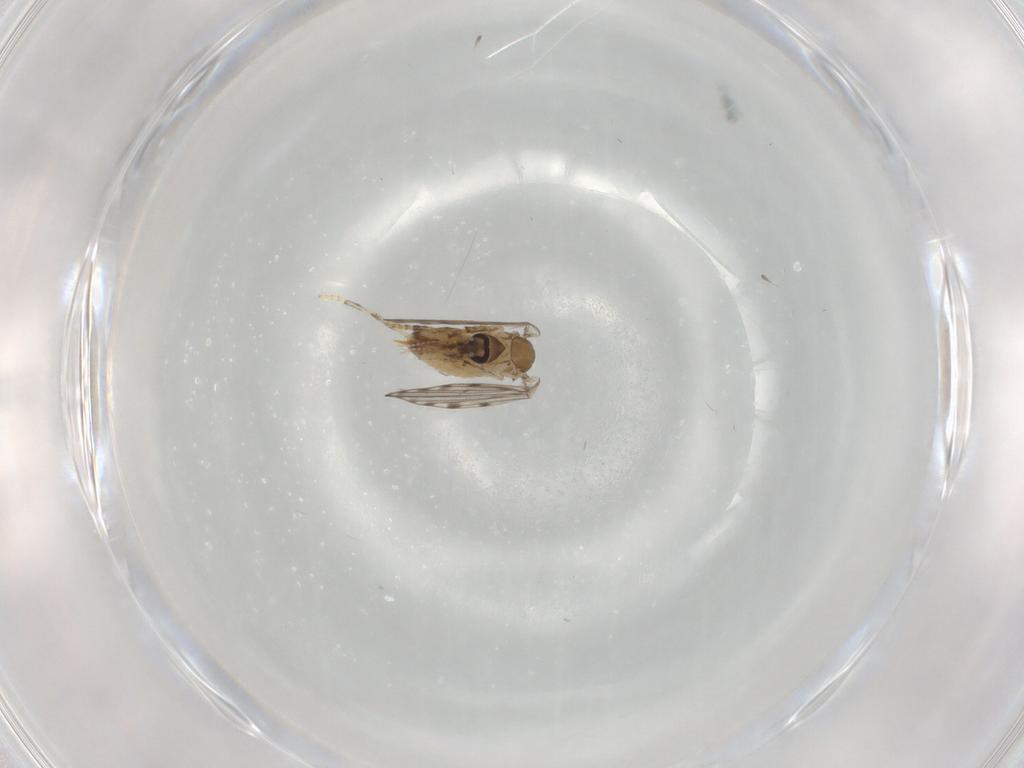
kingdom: Animalia
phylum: Arthropoda
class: Insecta
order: Diptera
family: Psychodidae
